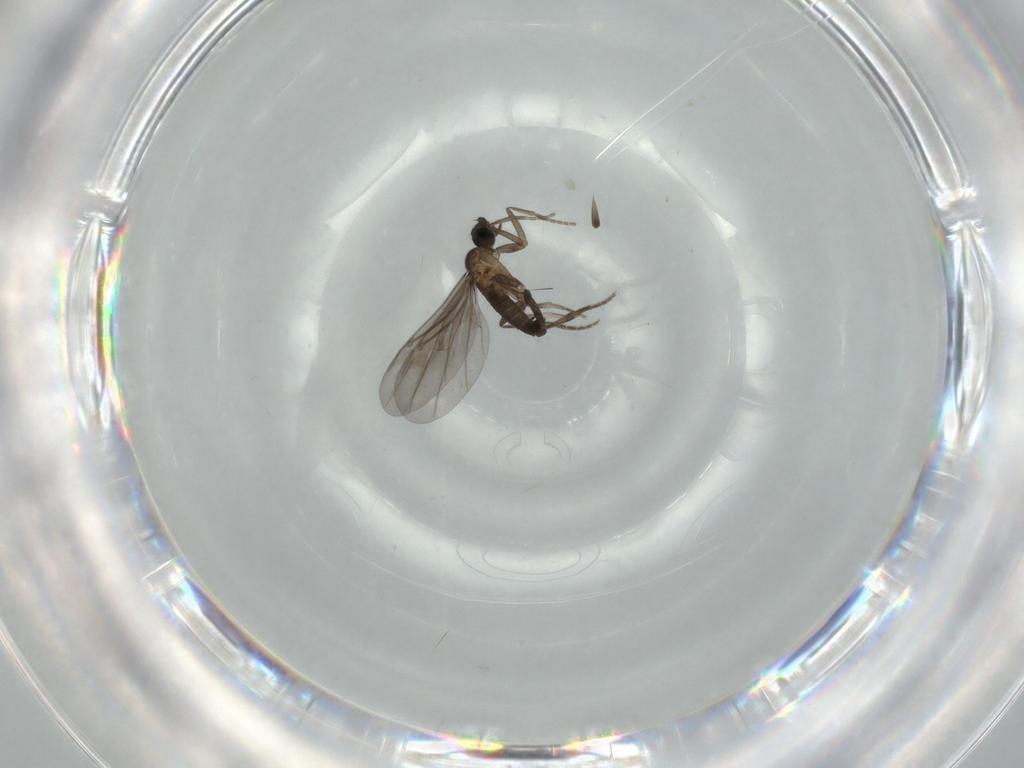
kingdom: Animalia
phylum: Arthropoda
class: Insecta
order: Diptera
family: Phoridae
